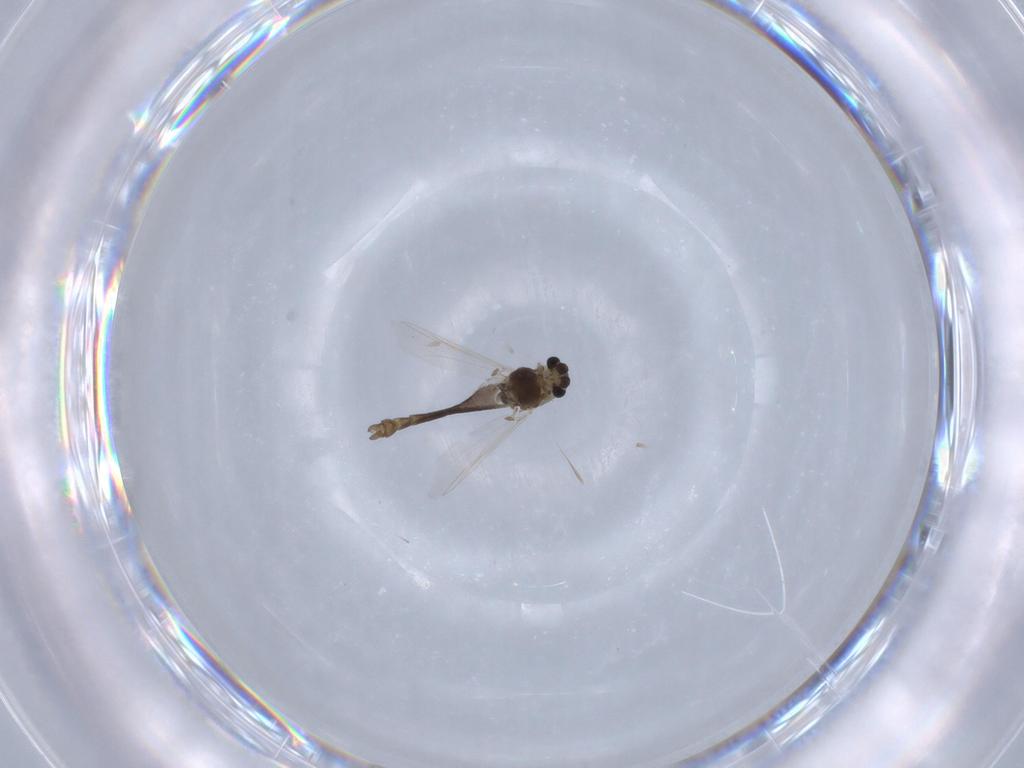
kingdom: Animalia
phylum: Arthropoda
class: Insecta
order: Diptera
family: Chironomidae
